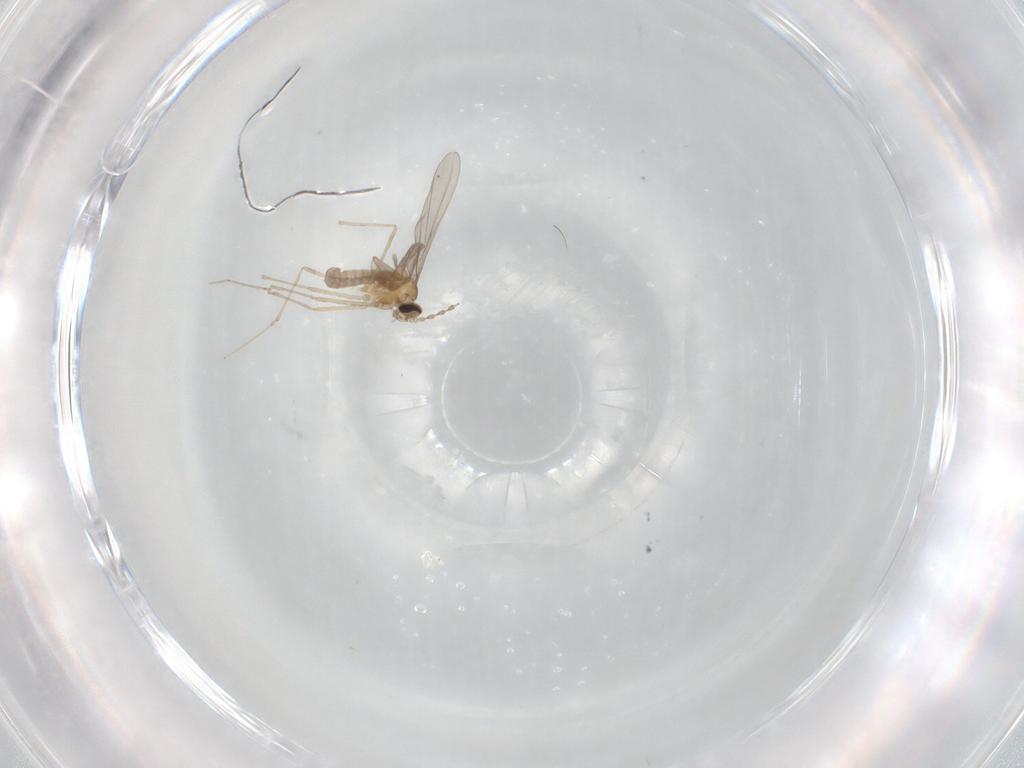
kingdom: Animalia
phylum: Arthropoda
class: Insecta
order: Diptera
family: Cecidomyiidae
